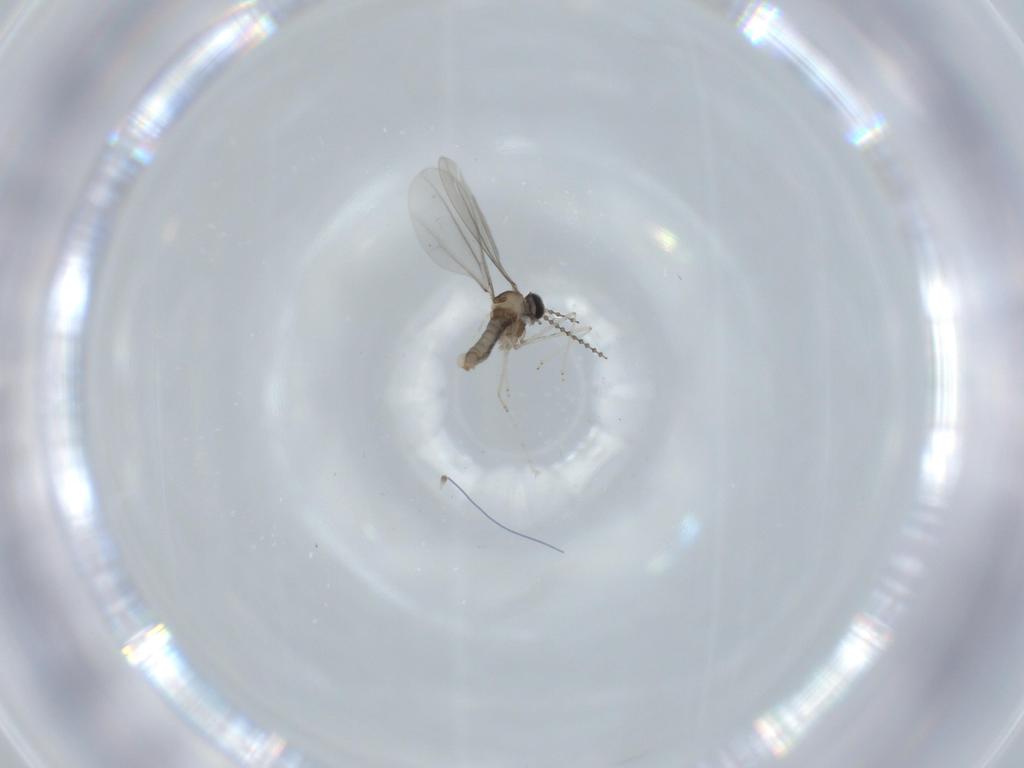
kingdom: Animalia
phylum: Arthropoda
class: Insecta
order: Diptera
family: Cecidomyiidae
